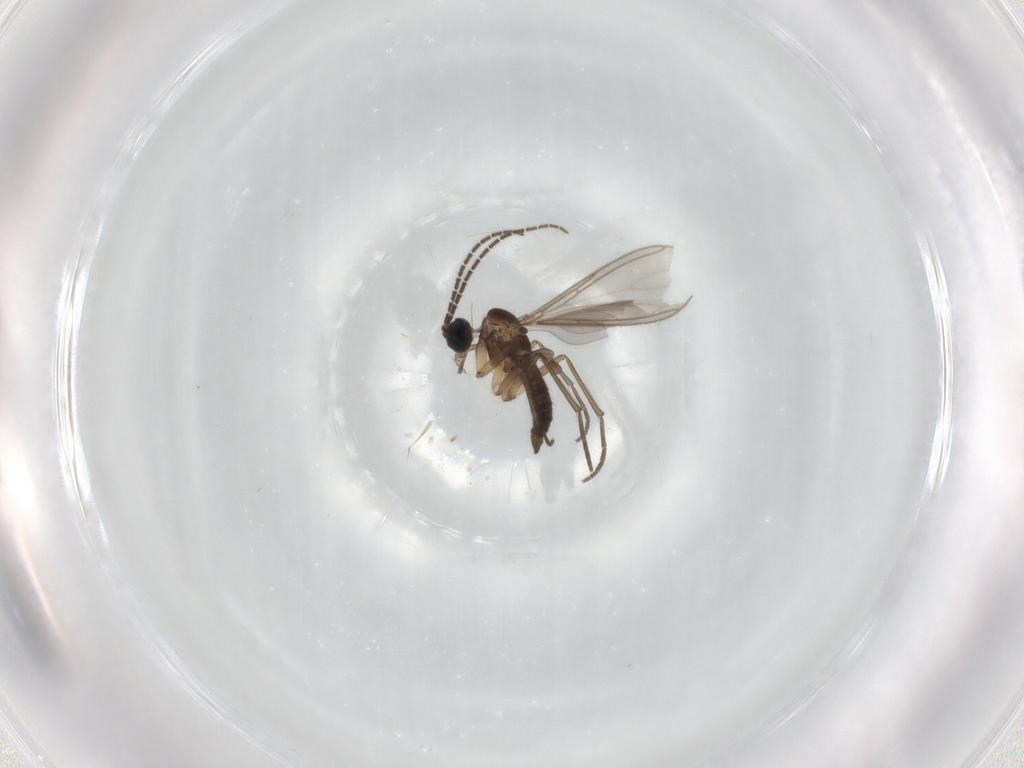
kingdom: Animalia
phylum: Arthropoda
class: Insecta
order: Diptera
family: Sciaridae
